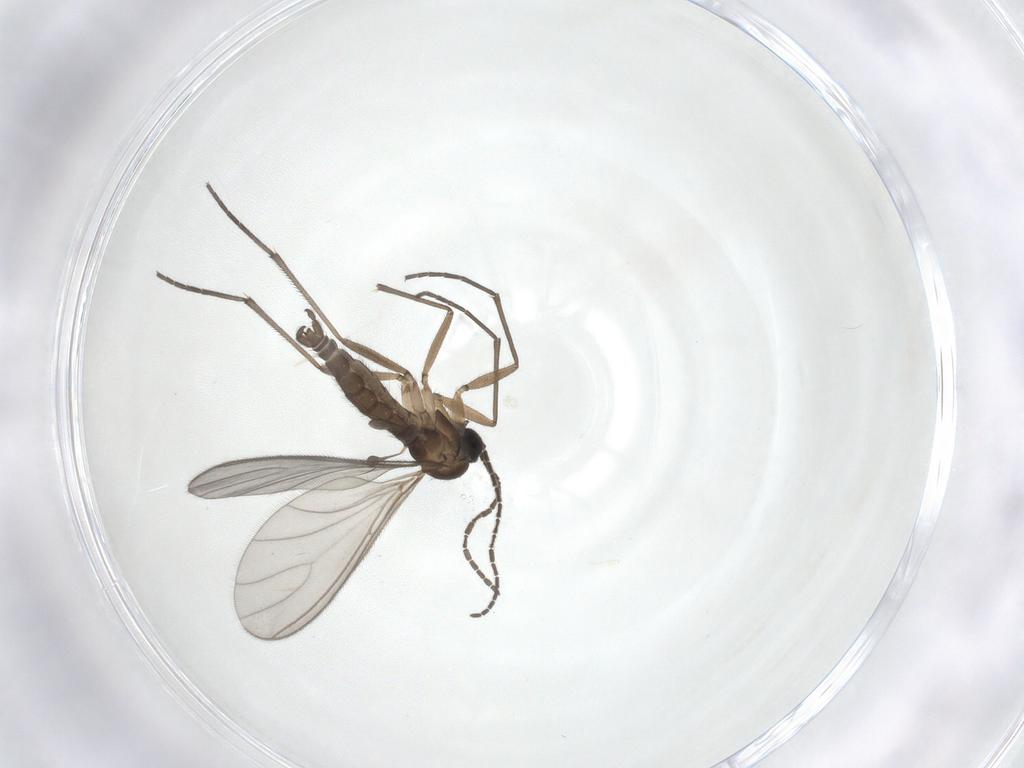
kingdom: Animalia
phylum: Arthropoda
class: Insecta
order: Diptera
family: Sciaridae
